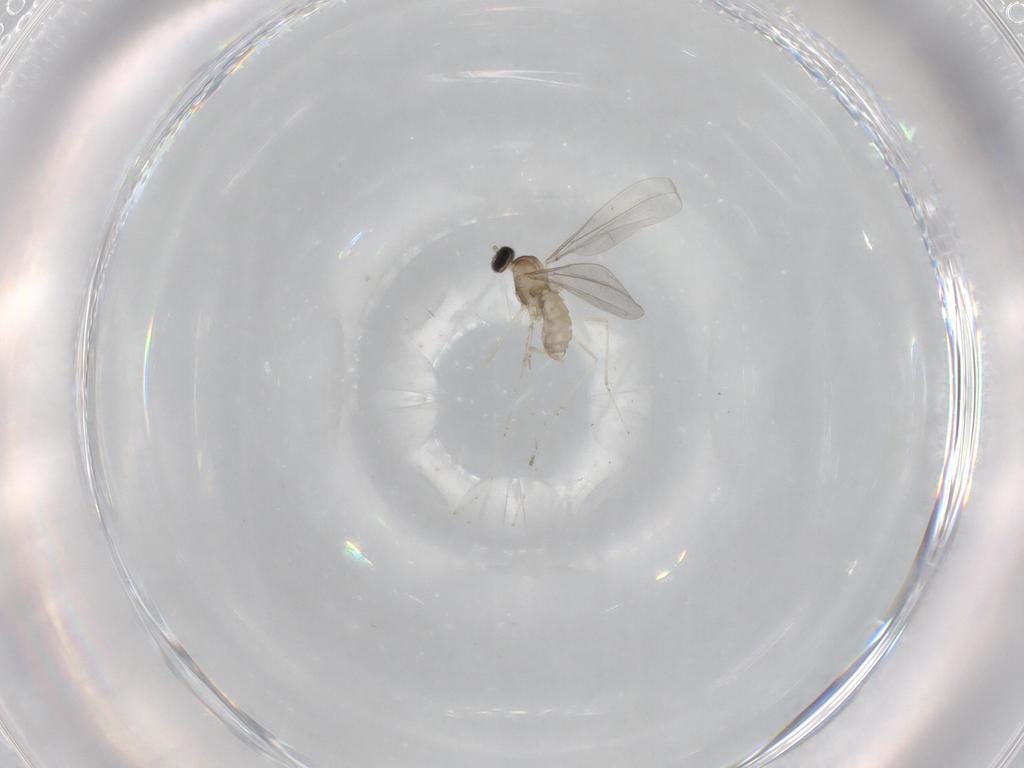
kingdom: Animalia
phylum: Arthropoda
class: Insecta
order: Diptera
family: Cecidomyiidae
